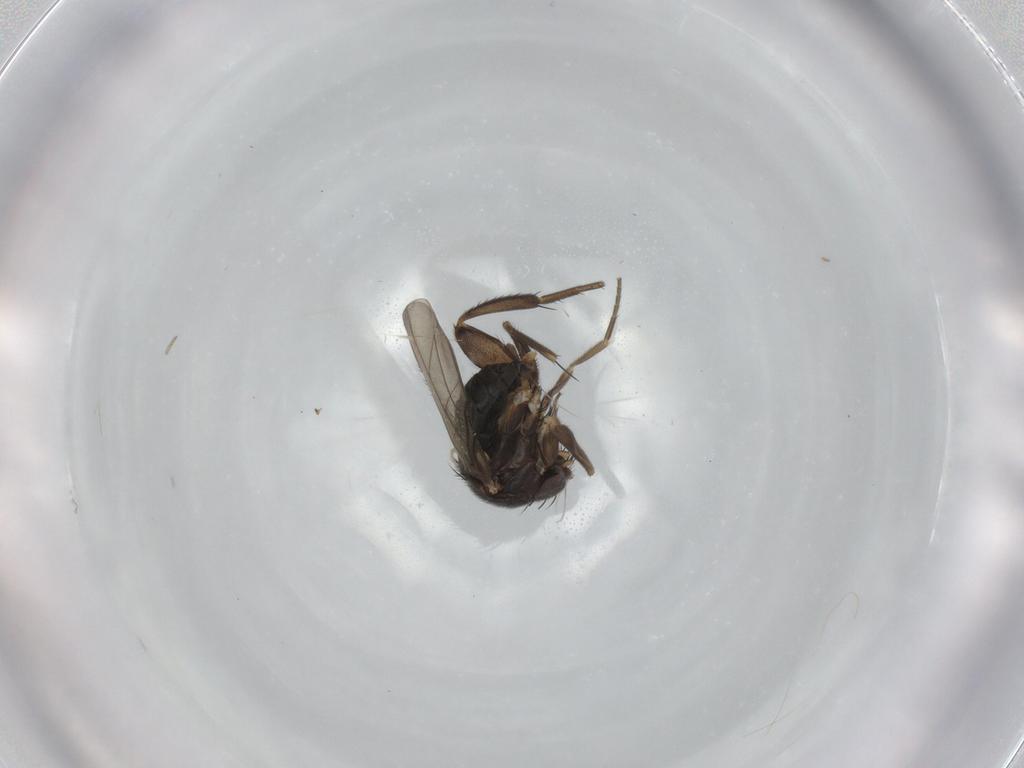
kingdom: Animalia
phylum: Arthropoda
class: Insecta
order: Diptera
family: Phoridae
